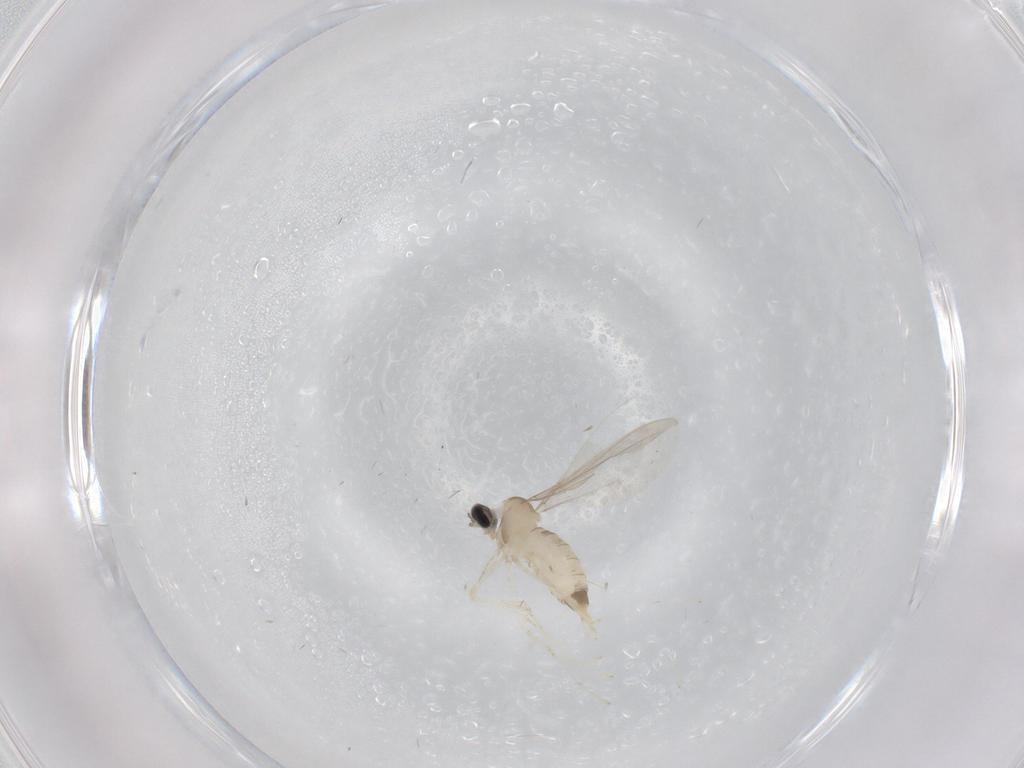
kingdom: Animalia
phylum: Arthropoda
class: Insecta
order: Diptera
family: Cecidomyiidae
